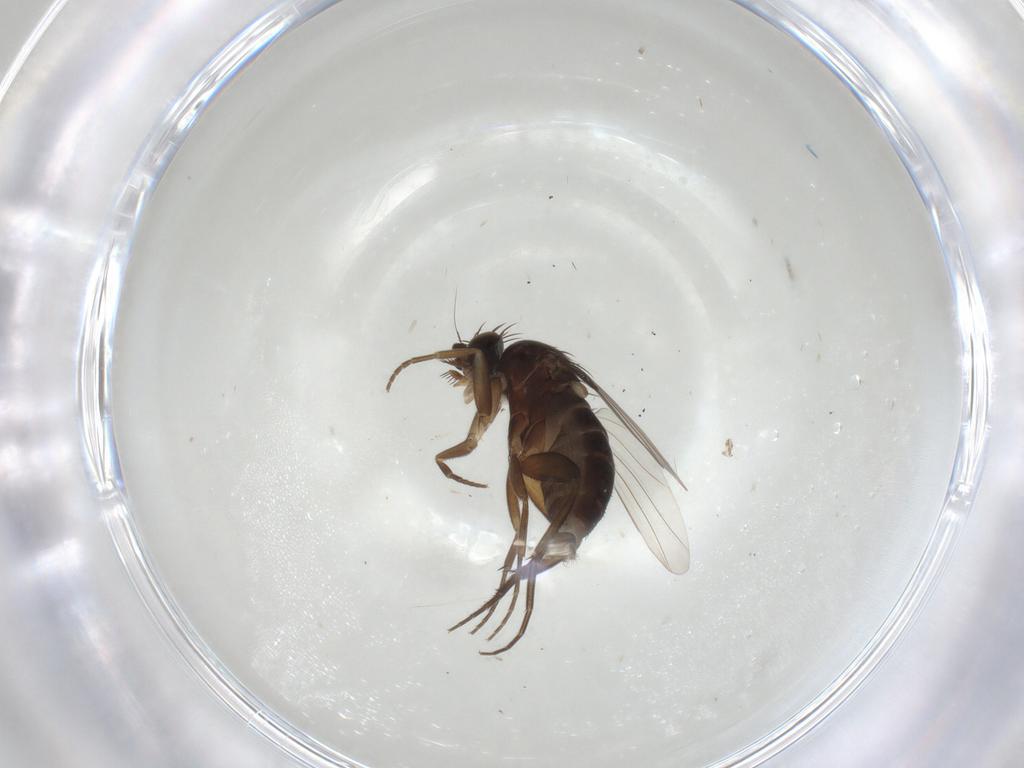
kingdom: Animalia
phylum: Arthropoda
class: Insecta
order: Diptera
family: Phoridae
